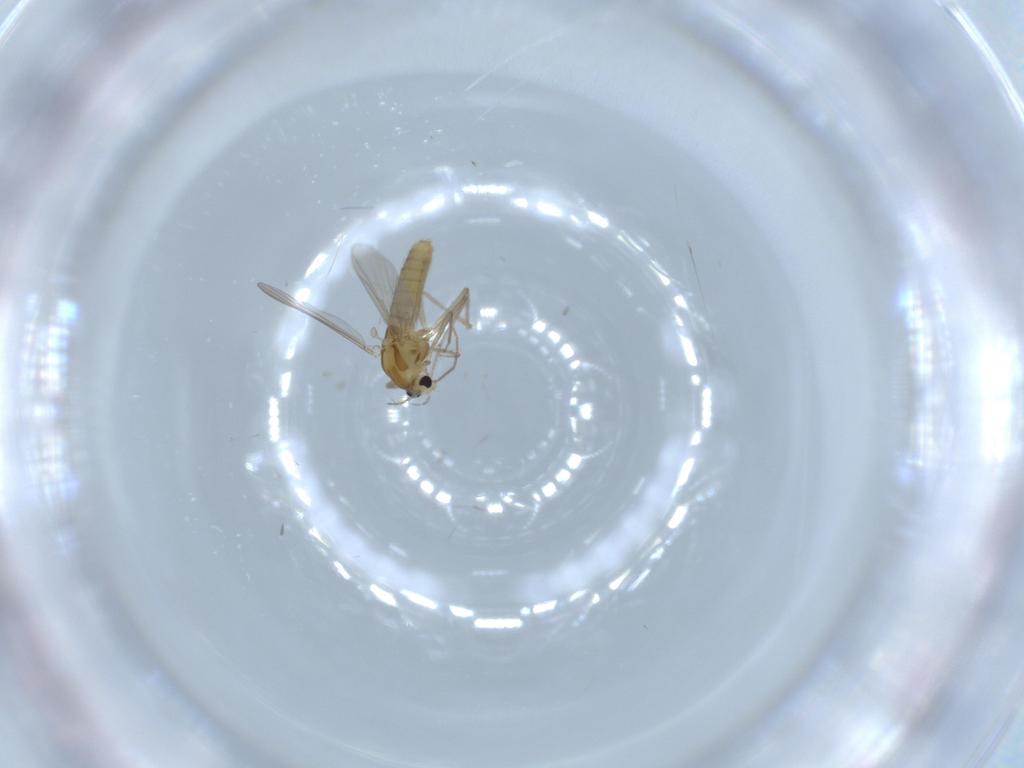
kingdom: Animalia
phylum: Arthropoda
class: Insecta
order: Diptera
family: Chironomidae
